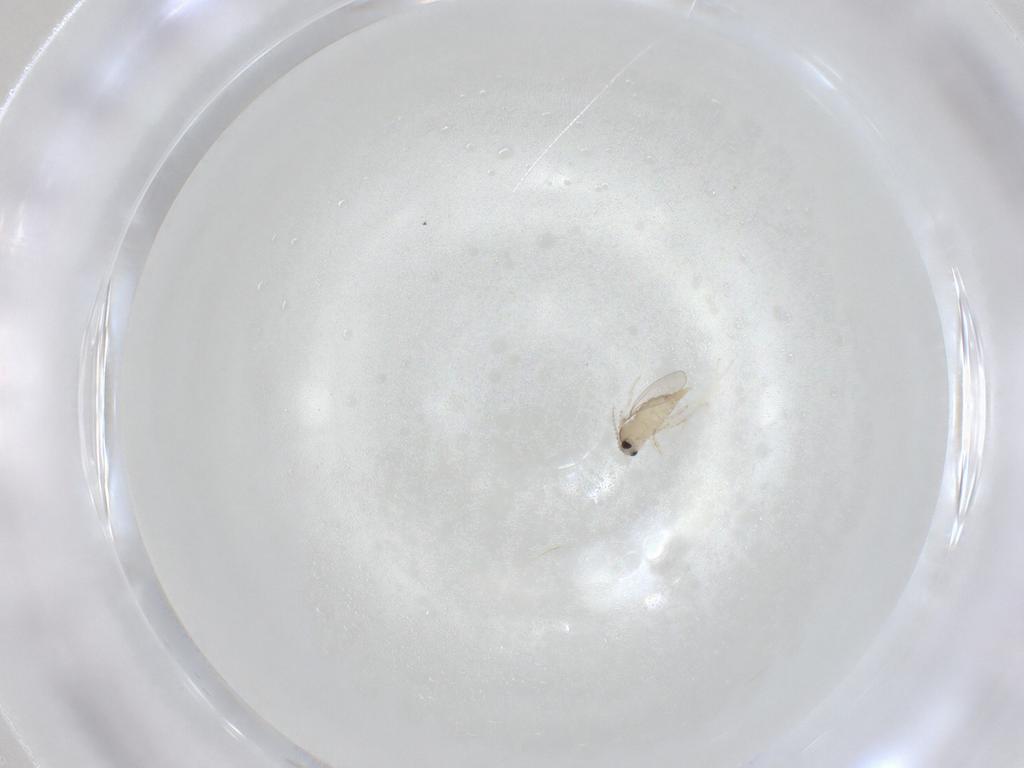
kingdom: Animalia
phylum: Arthropoda
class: Insecta
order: Diptera
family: Cecidomyiidae
